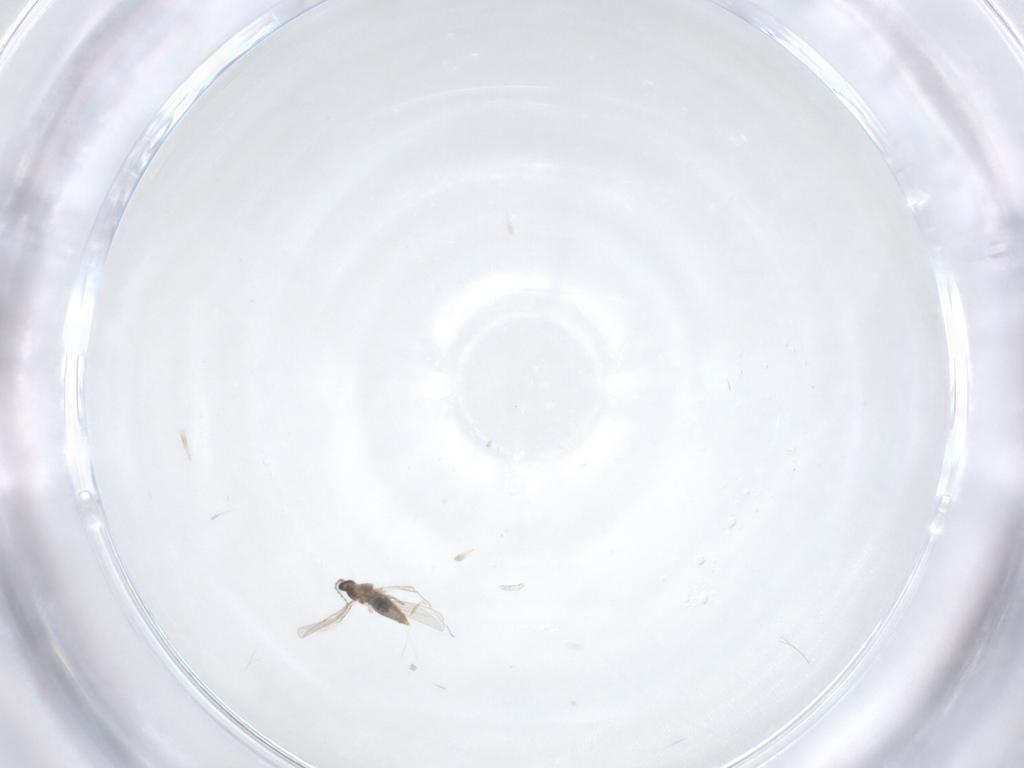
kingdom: Animalia
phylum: Arthropoda
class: Insecta
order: Diptera
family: Cecidomyiidae
